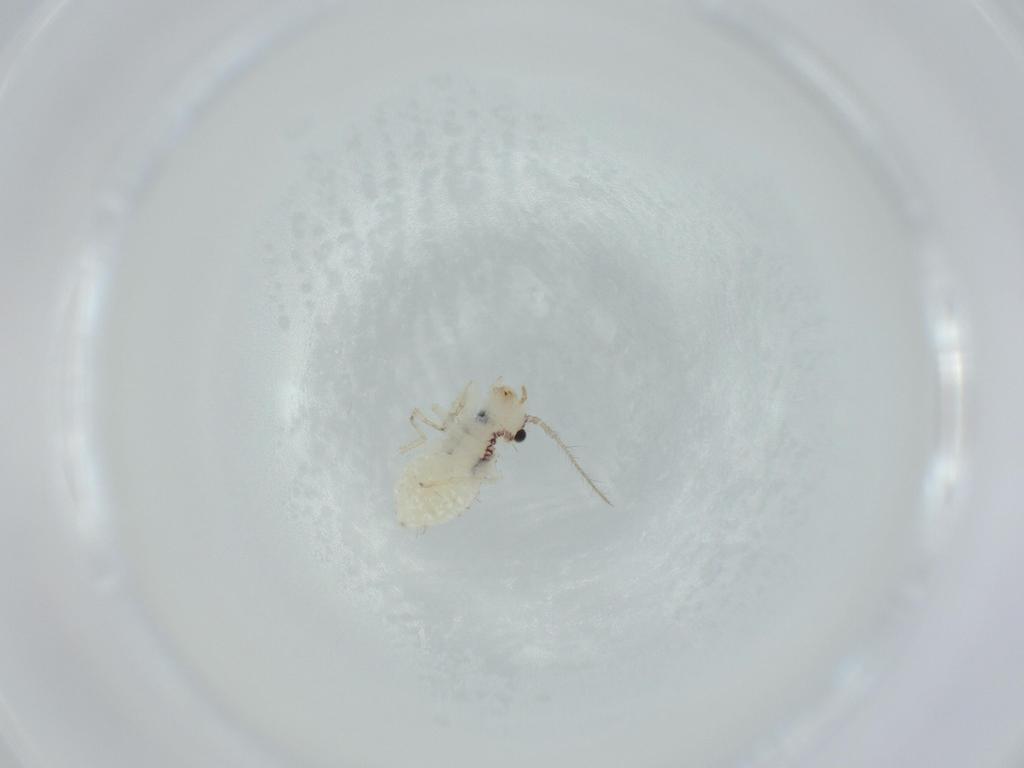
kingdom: Animalia
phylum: Arthropoda
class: Insecta
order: Psocodea
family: Pseudocaeciliidae
